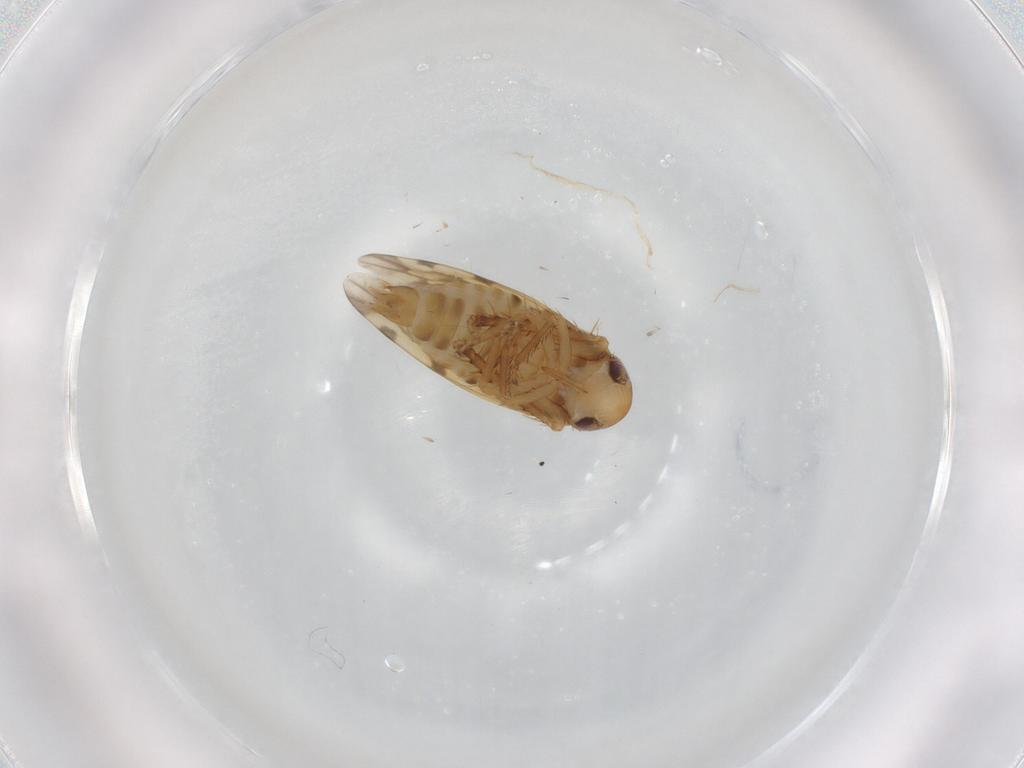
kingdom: Animalia
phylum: Arthropoda
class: Insecta
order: Hemiptera
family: Cicadellidae
